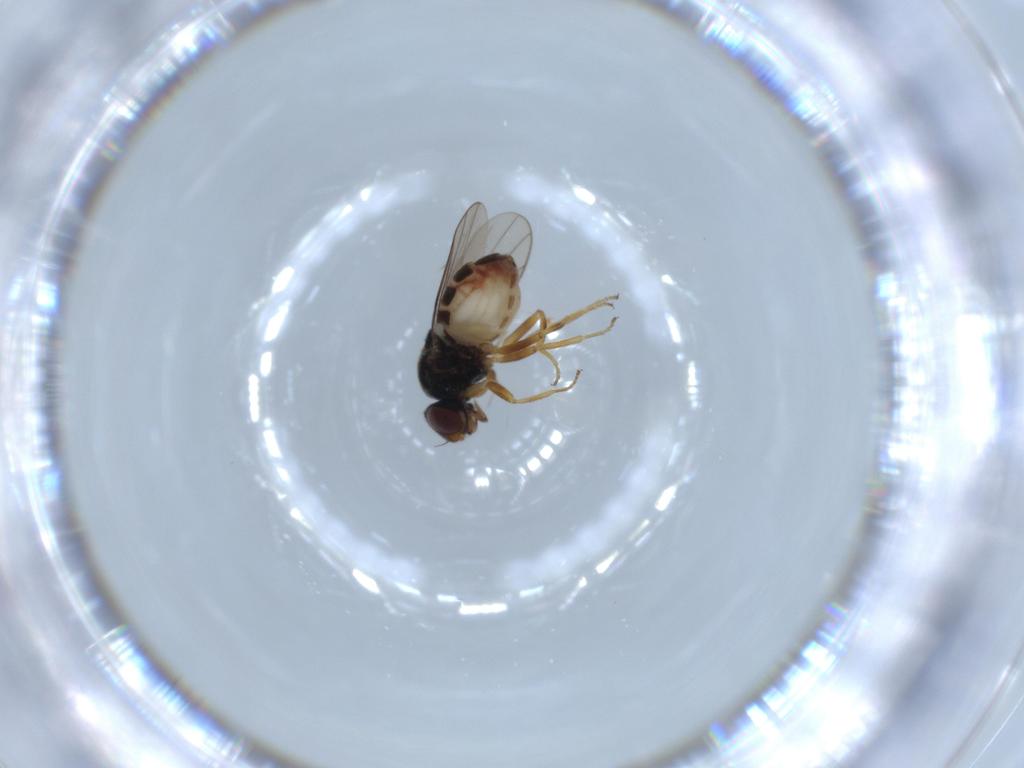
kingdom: Animalia
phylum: Arthropoda
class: Insecta
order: Diptera
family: Chloropidae
